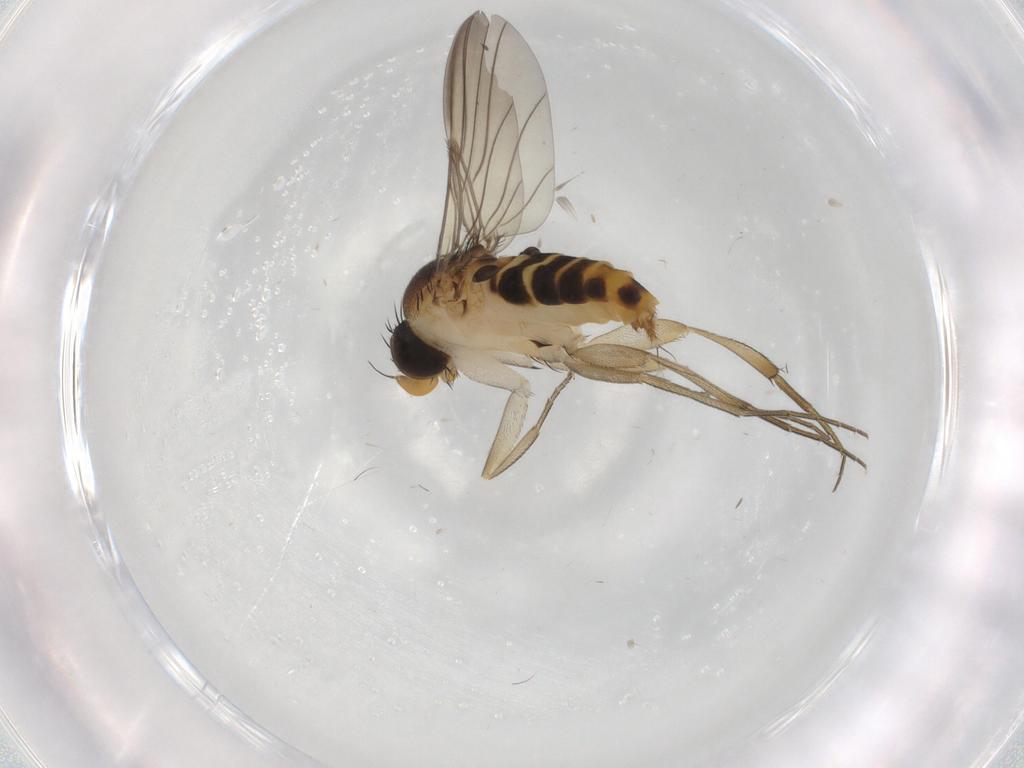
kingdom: Animalia
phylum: Arthropoda
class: Insecta
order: Diptera
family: Phoridae
